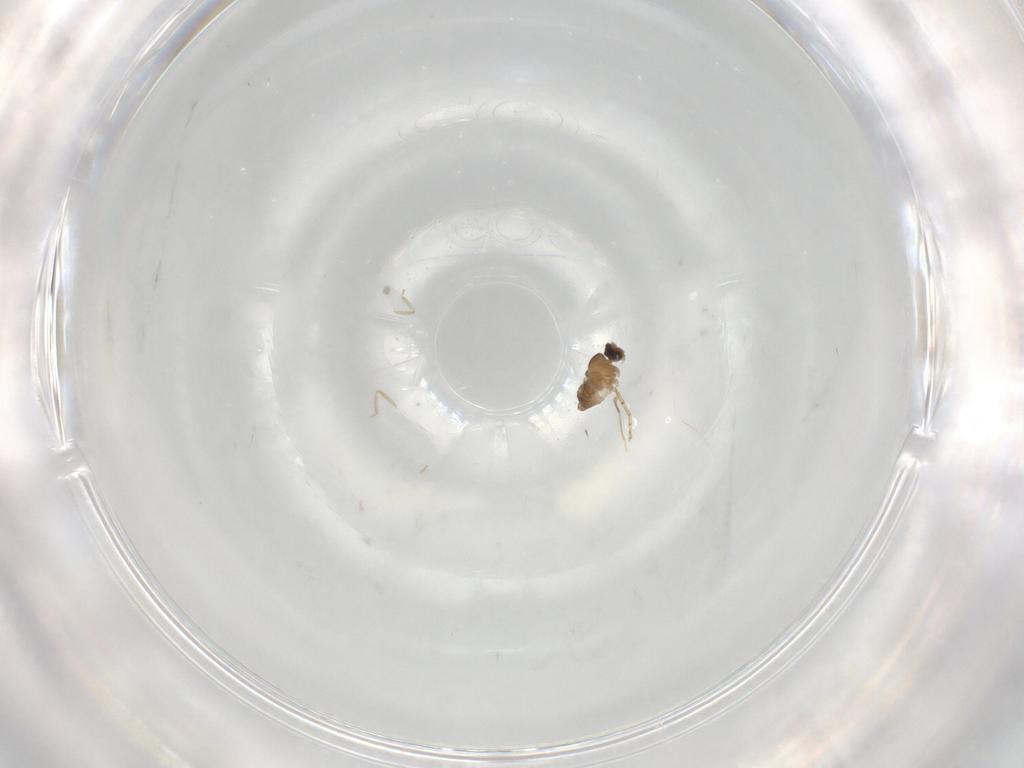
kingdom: Animalia
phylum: Arthropoda
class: Insecta
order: Diptera
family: Cecidomyiidae
